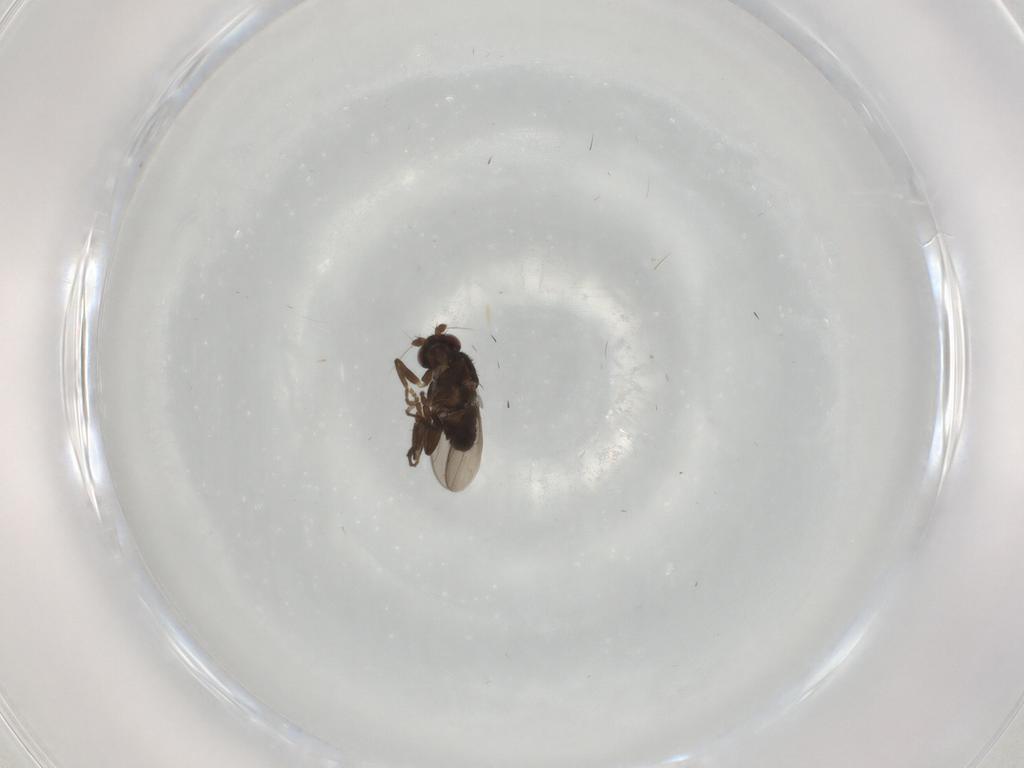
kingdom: Animalia
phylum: Arthropoda
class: Insecta
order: Diptera
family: Sphaeroceridae
